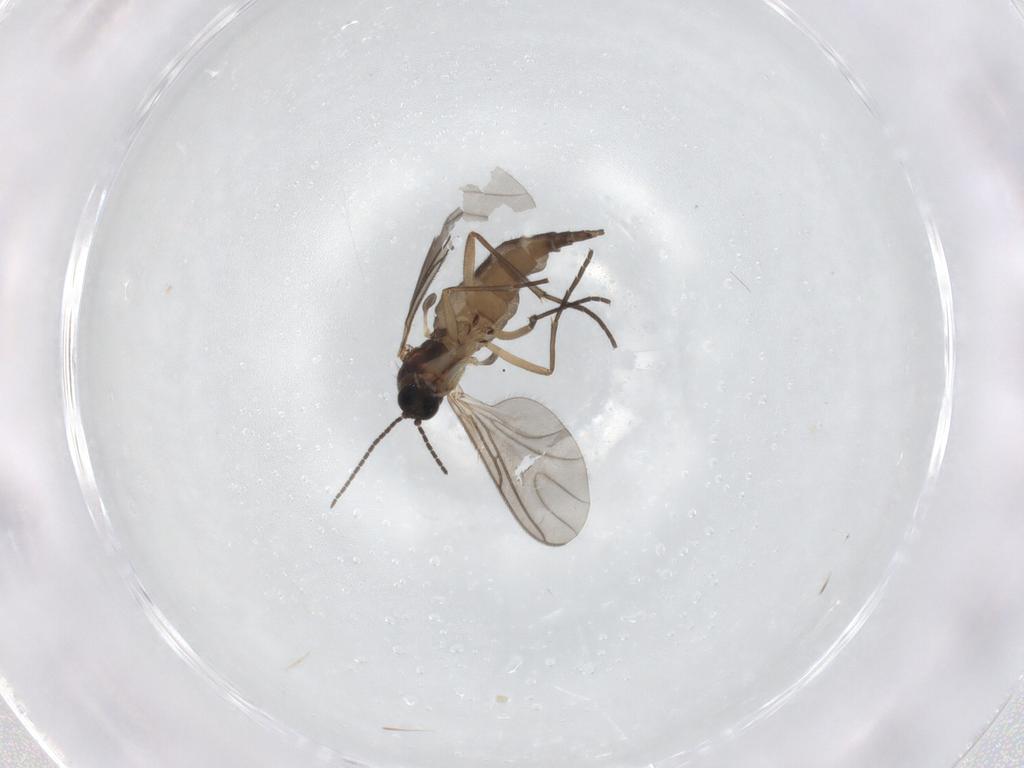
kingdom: Animalia
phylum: Arthropoda
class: Insecta
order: Diptera
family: Sciaridae
